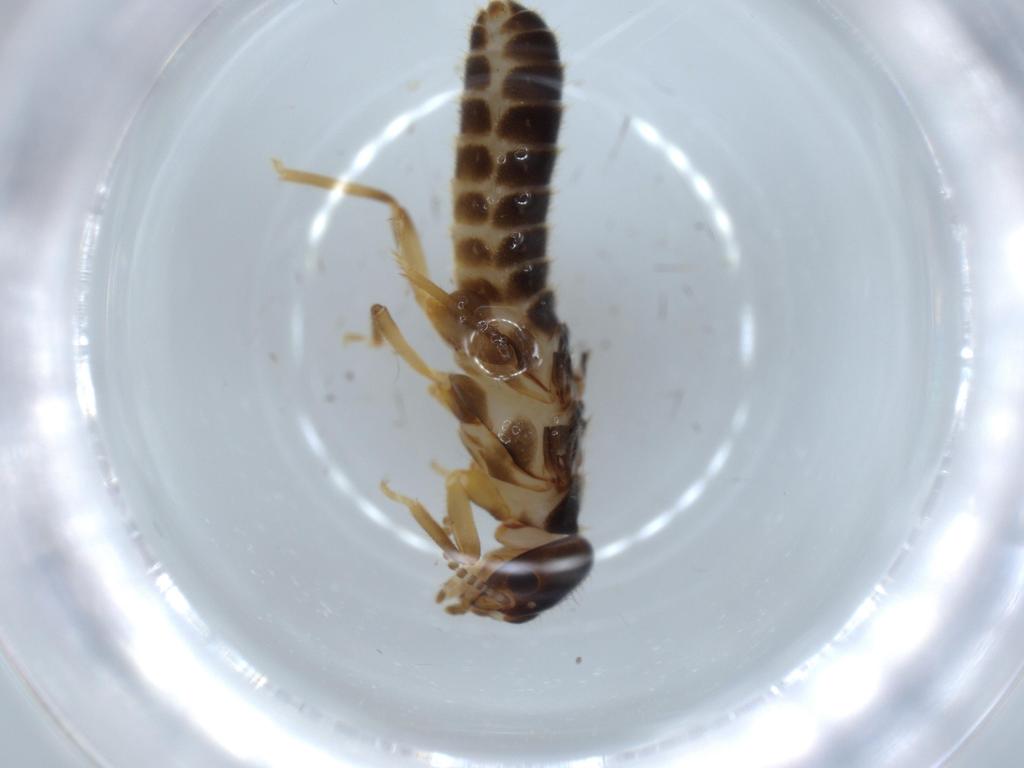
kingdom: Animalia
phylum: Arthropoda
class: Insecta
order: Blattodea
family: Termitidae
